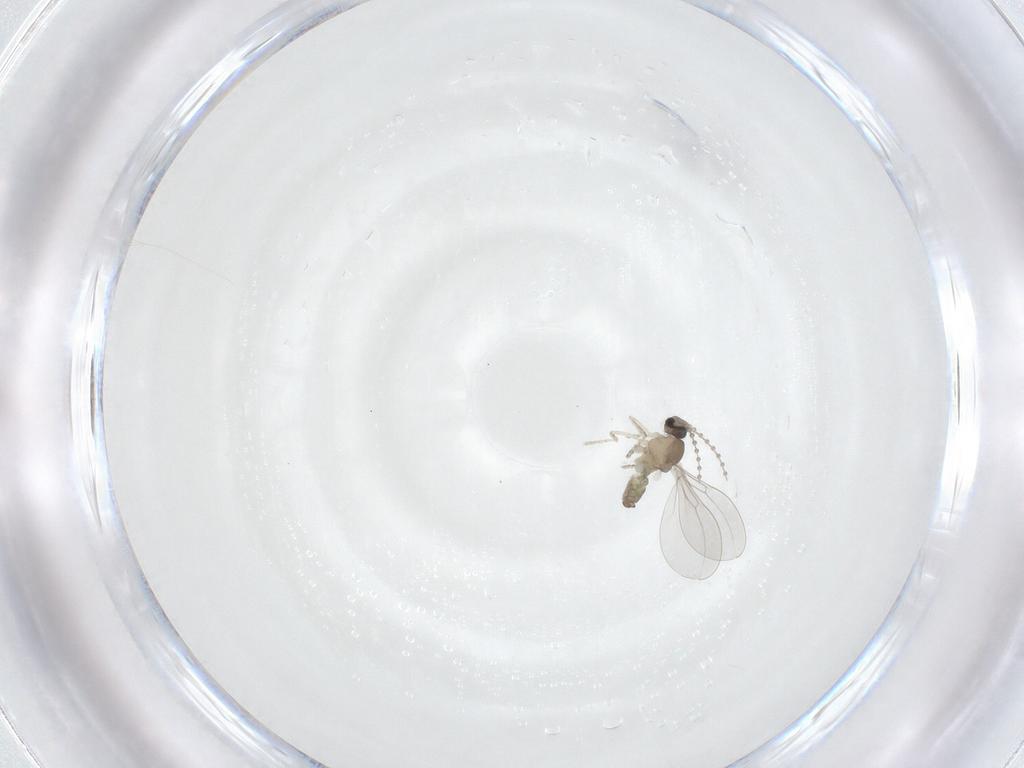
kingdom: Animalia
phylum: Arthropoda
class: Insecta
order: Diptera
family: Cecidomyiidae
